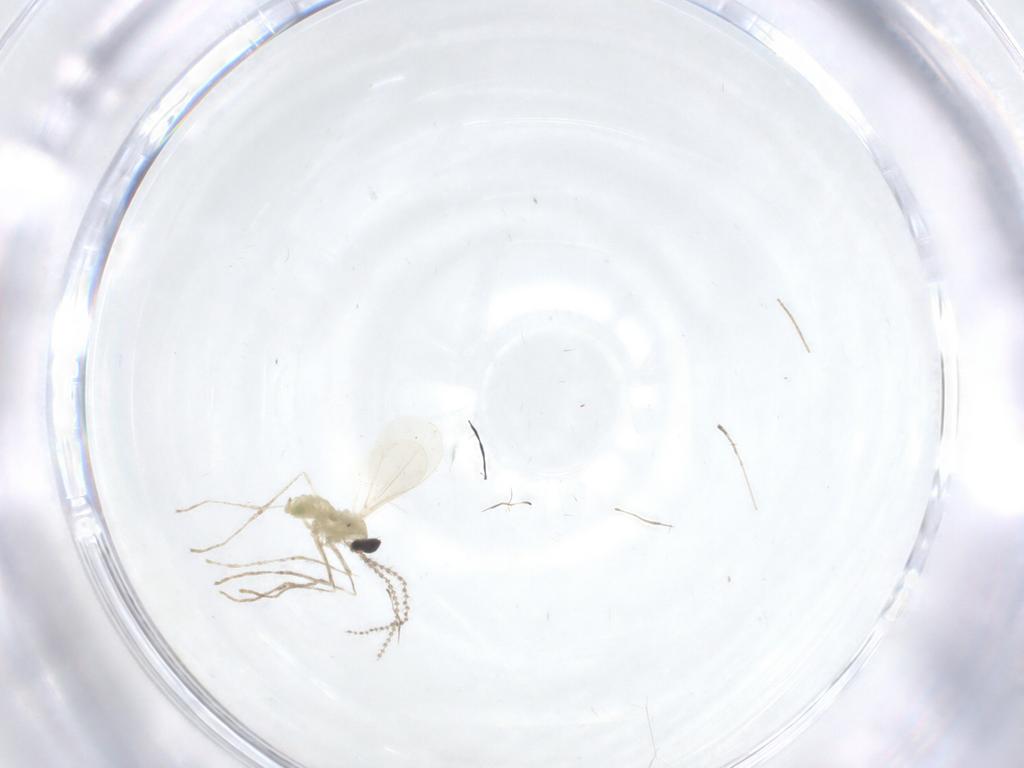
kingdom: Animalia
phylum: Arthropoda
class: Insecta
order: Diptera
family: Cecidomyiidae
